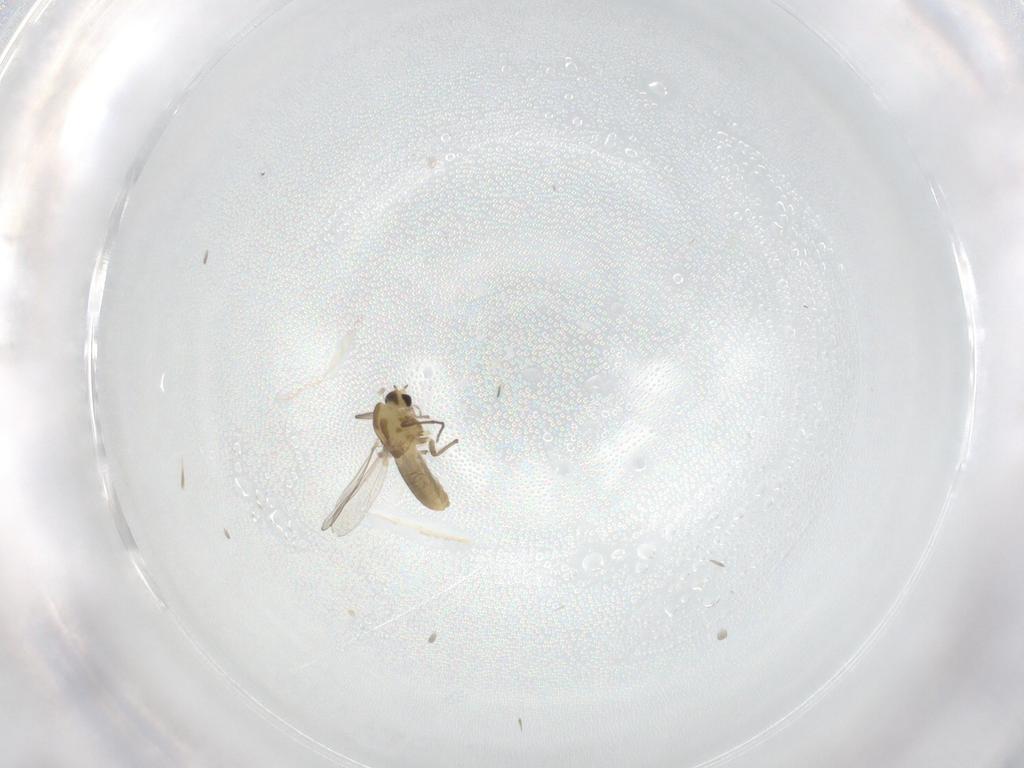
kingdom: Animalia
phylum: Arthropoda
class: Insecta
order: Diptera
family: Chironomidae
